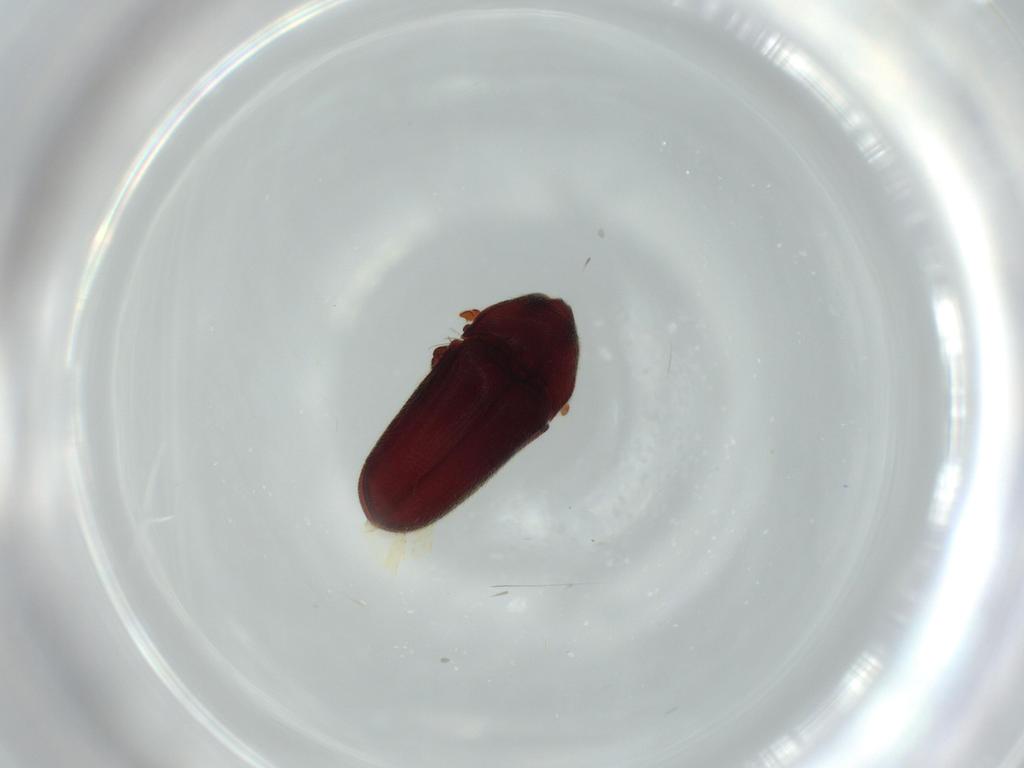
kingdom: Animalia
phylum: Arthropoda
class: Insecta
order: Coleoptera
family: Throscidae
